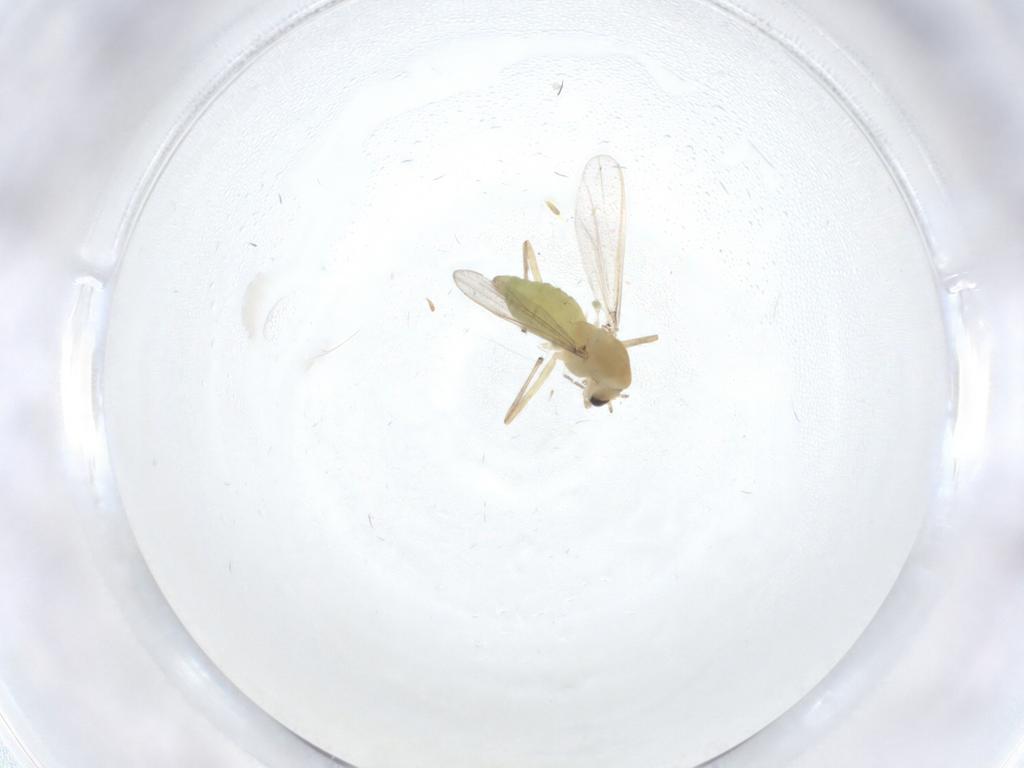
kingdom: Animalia
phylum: Arthropoda
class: Insecta
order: Diptera
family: Chironomidae
